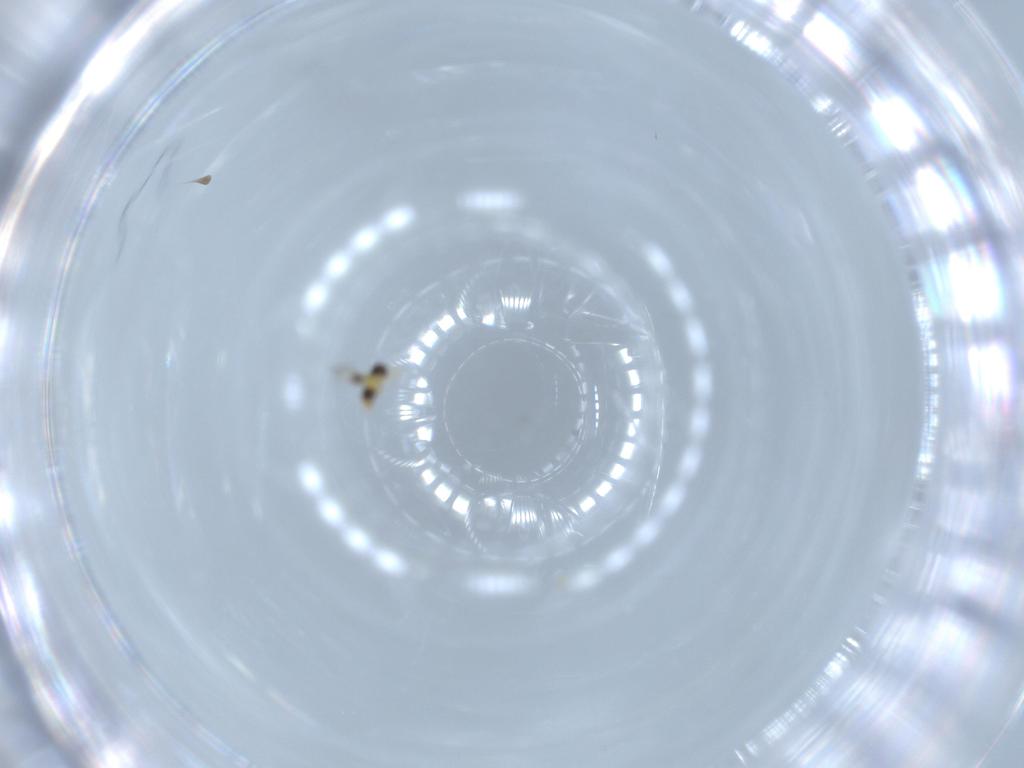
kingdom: Animalia
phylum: Arthropoda
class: Insecta
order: Hymenoptera
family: Signiphoridae
